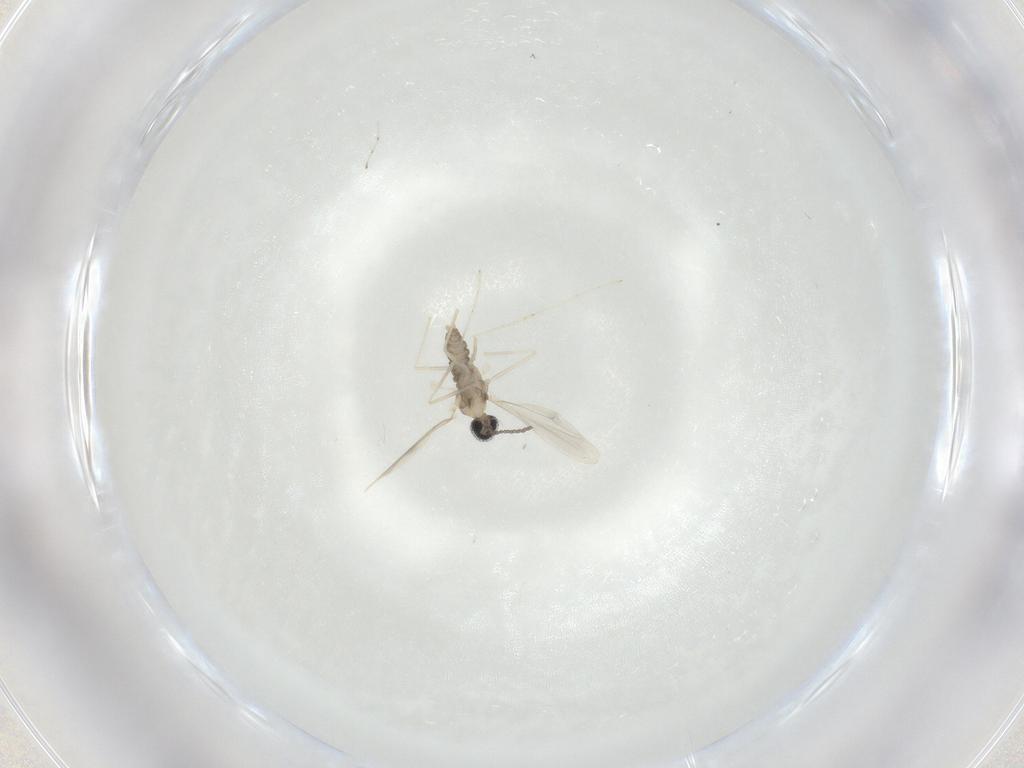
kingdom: Animalia
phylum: Arthropoda
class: Insecta
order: Diptera
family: Cecidomyiidae
